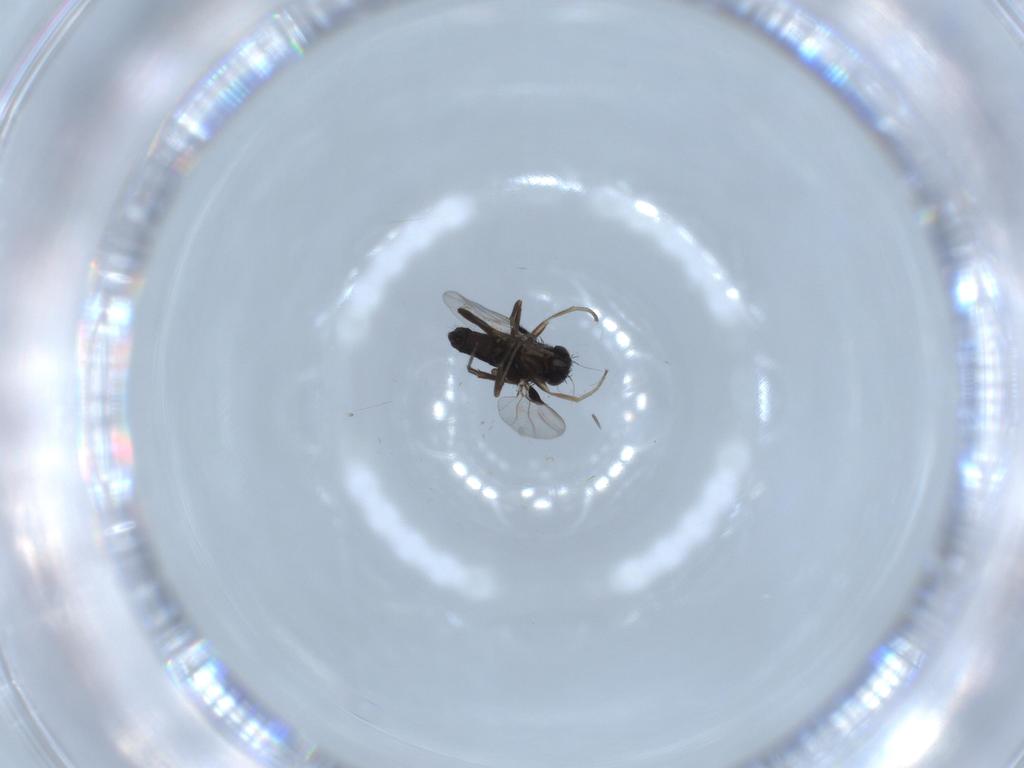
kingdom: Animalia
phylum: Arthropoda
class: Insecta
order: Diptera
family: Phoridae
